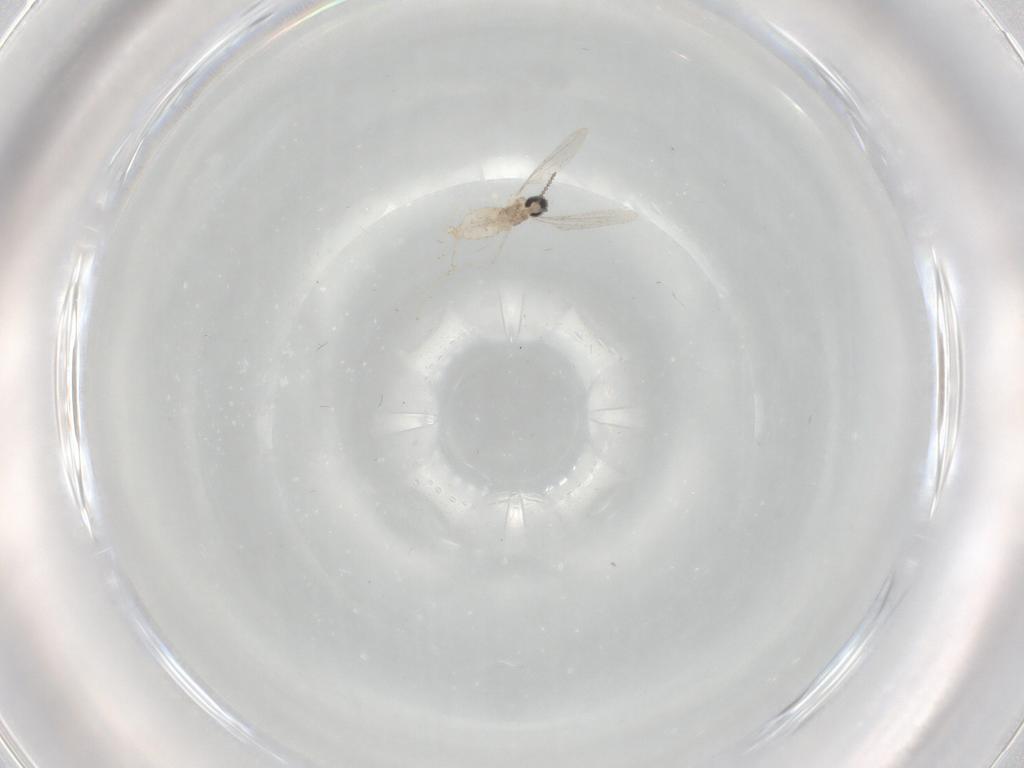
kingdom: Animalia
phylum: Arthropoda
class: Insecta
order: Diptera
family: Cecidomyiidae
